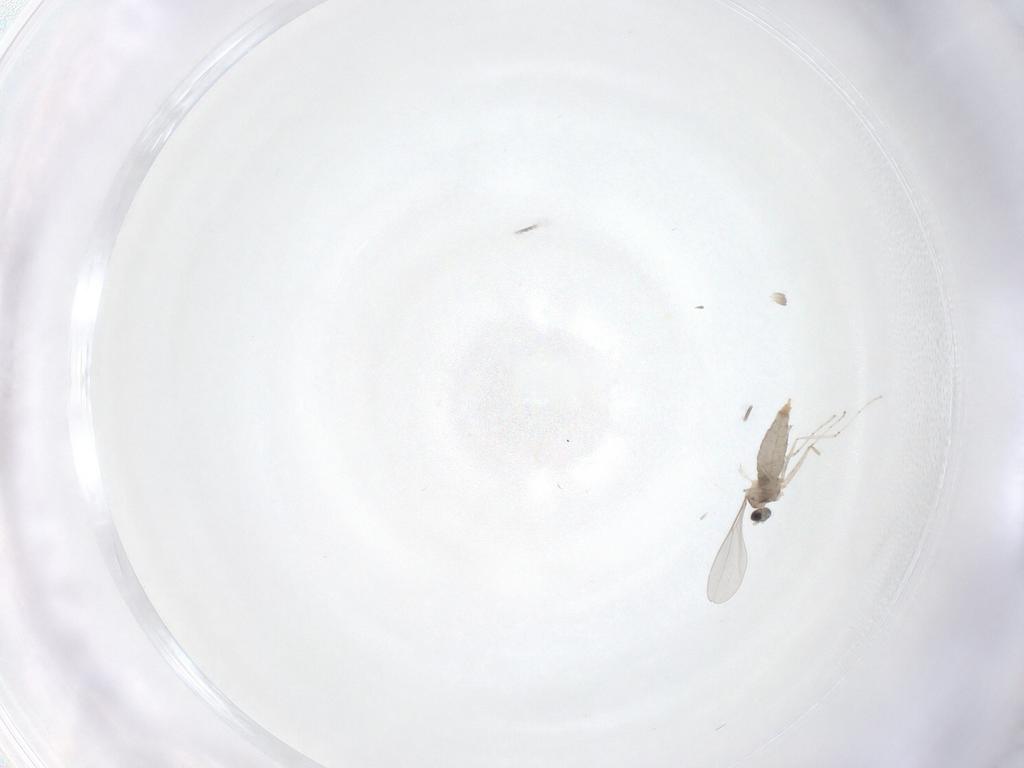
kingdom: Animalia
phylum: Arthropoda
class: Insecta
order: Diptera
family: Cecidomyiidae
